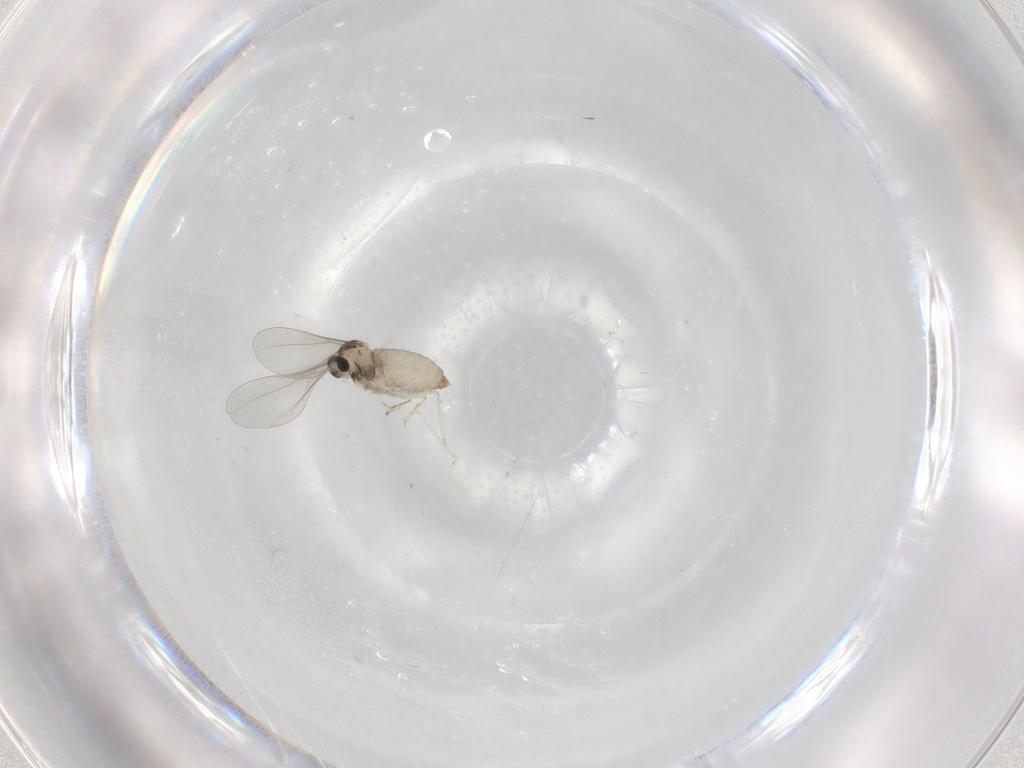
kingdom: Animalia
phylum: Arthropoda
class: Insecta
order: Diptera
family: Cecidomyiidae
